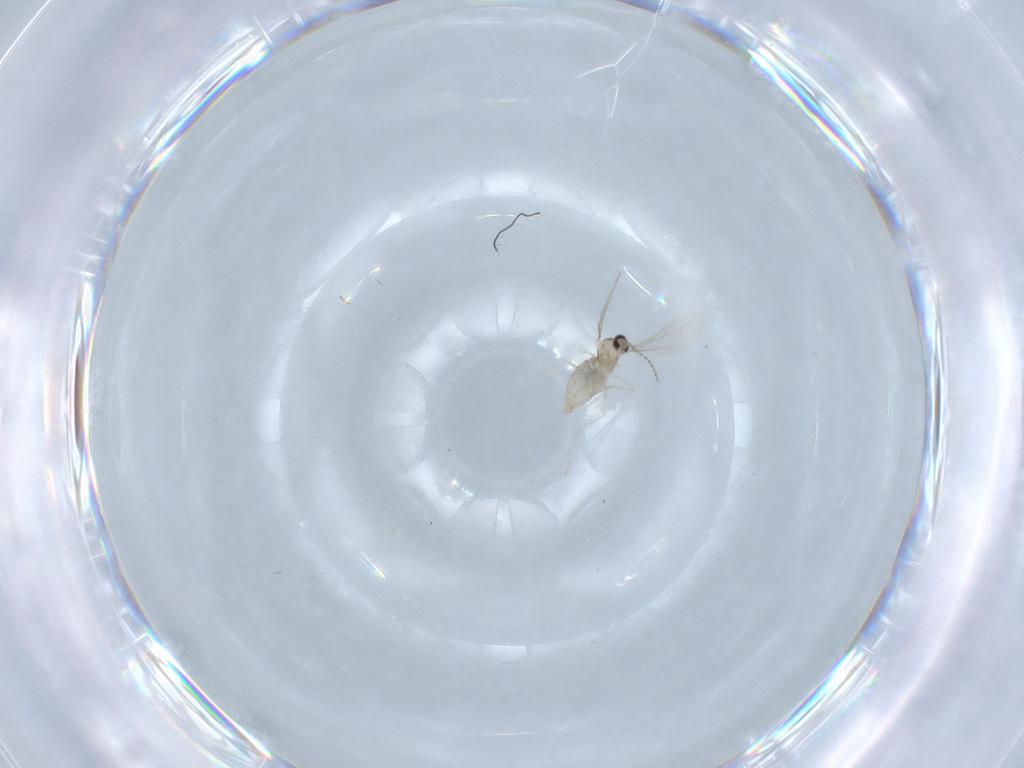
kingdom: Animalia
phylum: Arthropoda
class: Insecta
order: Diptera
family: Cecidomyiidae
